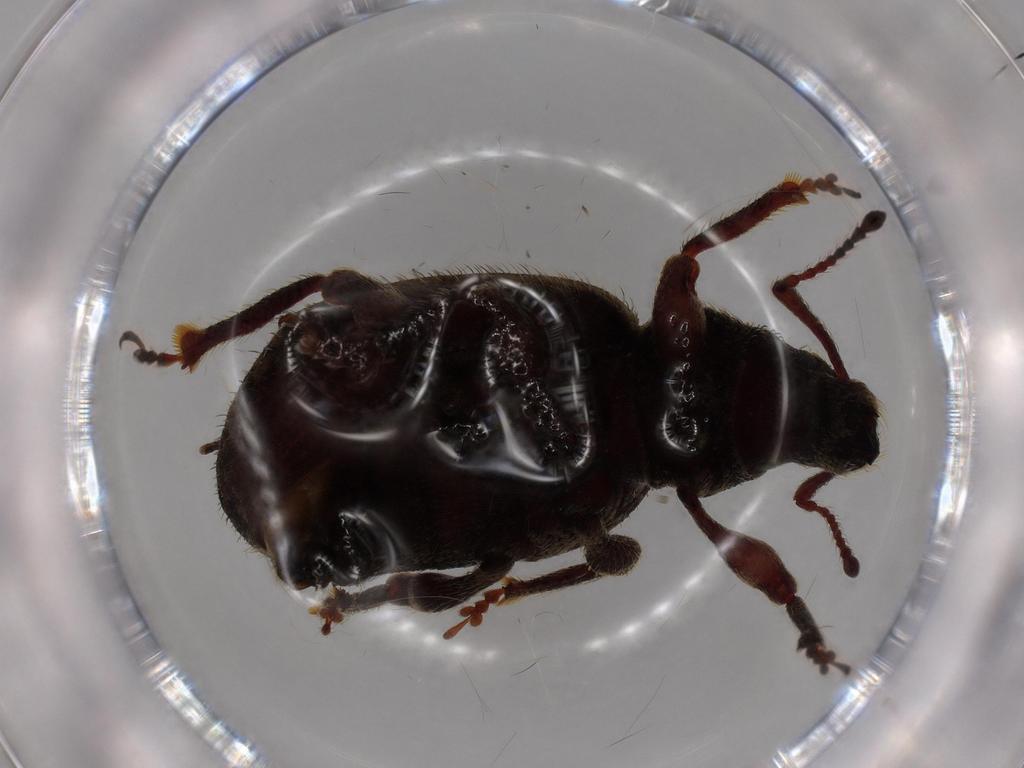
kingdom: Animalia
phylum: Arthropoda
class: Insecta
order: Coleoptera
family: Curculionidae
